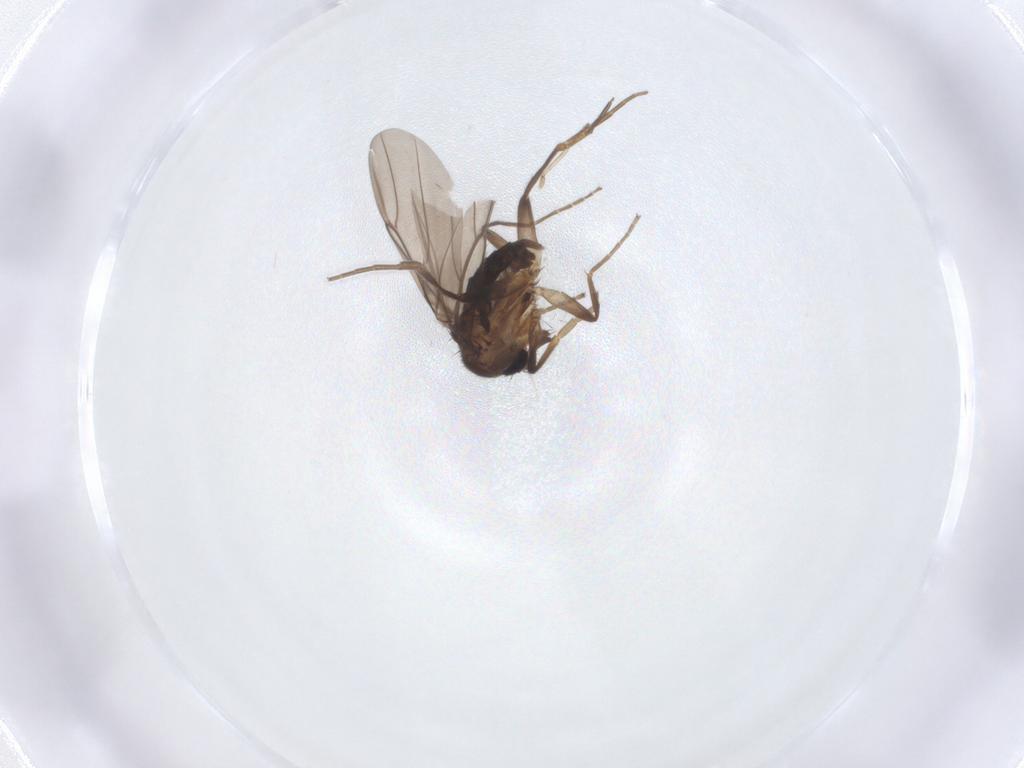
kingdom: Animalia
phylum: Arthropoda
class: Insecta
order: Diptera
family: Phoridae
